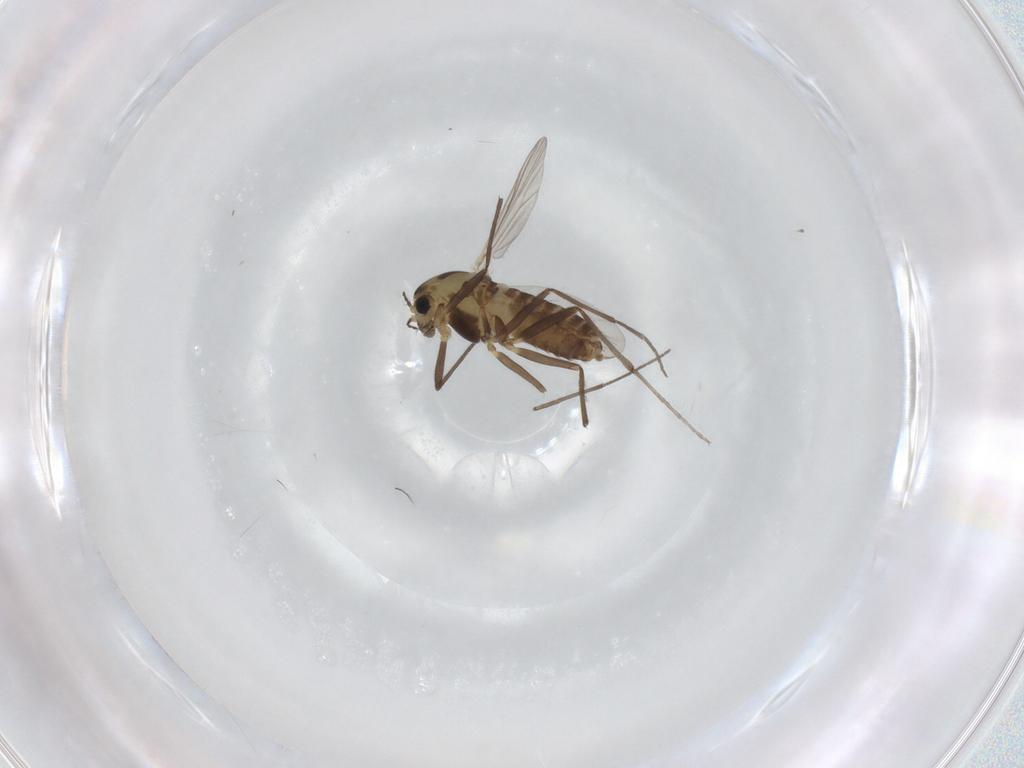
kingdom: Animalia
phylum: Arthropoda
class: Insecta
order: Diptera
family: Chironomidae
